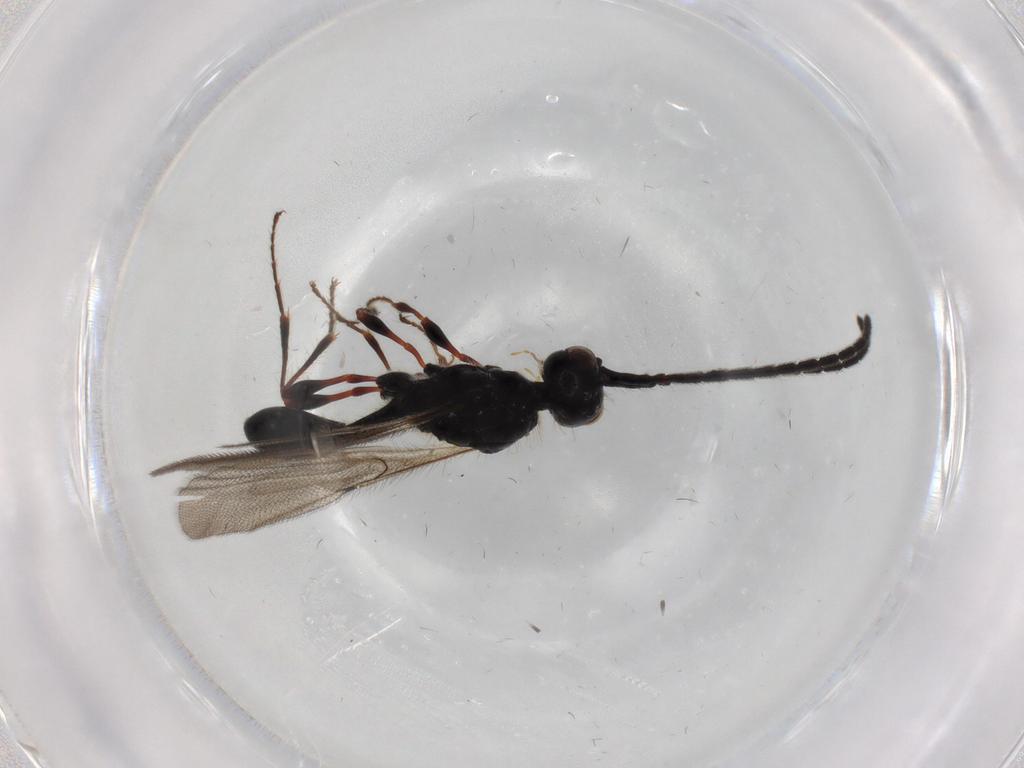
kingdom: Animalia
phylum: Arthropoda
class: Insecta
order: Hymenoptera
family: Diapriidae
